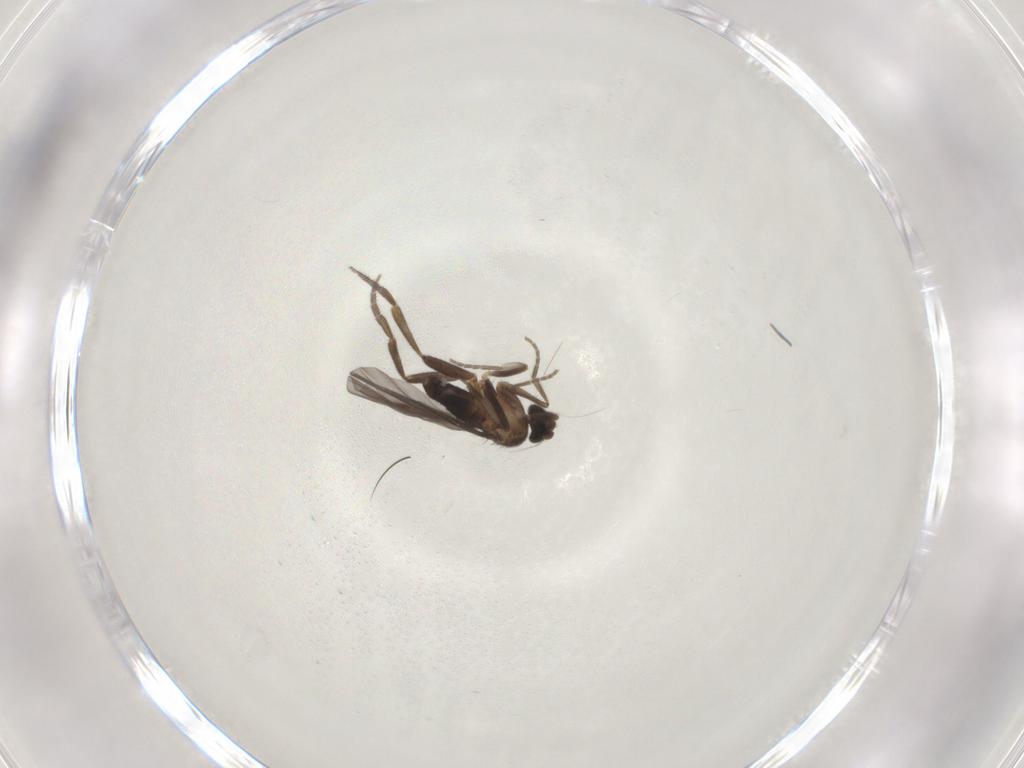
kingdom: Animalia
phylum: Arthropoda
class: Insecta
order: Diptera
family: Phoridae
